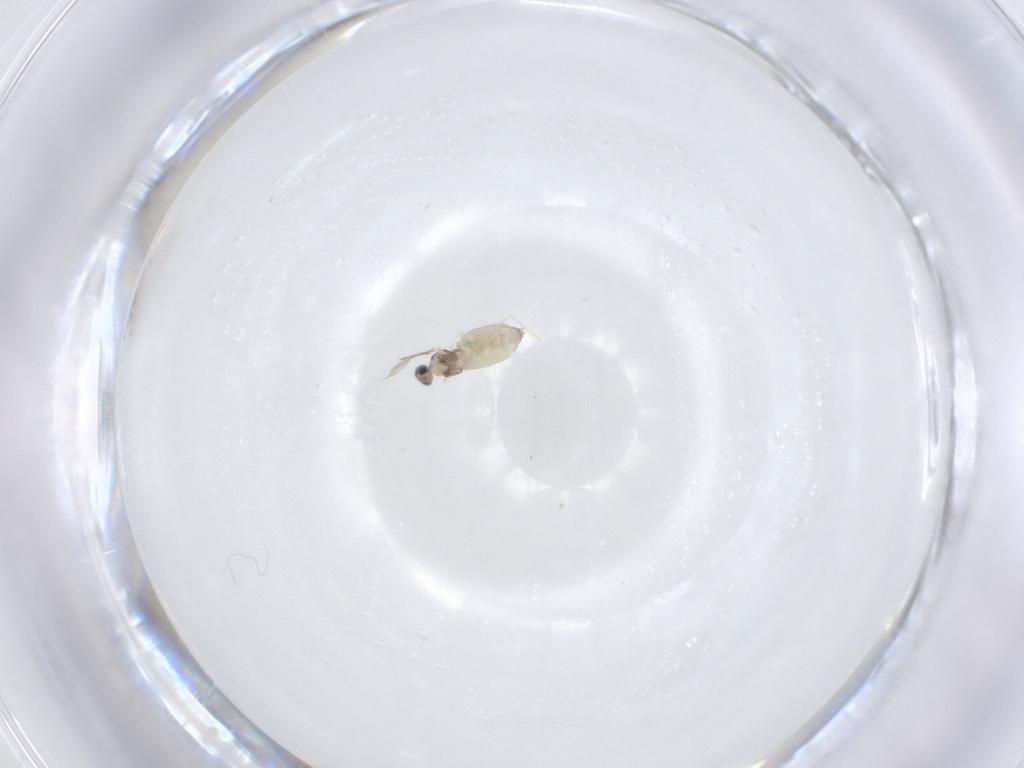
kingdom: Animalia
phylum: Arthropoda
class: Insecta
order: Diptera
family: Cecidomyiidae
